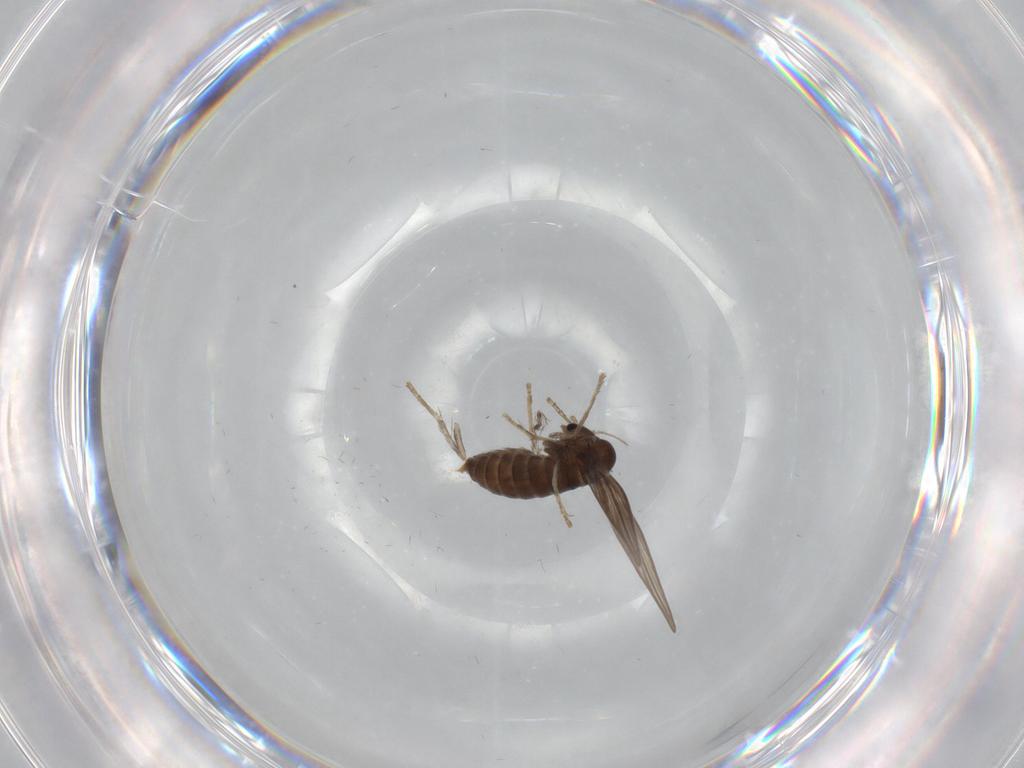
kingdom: Animalia
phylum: Arthropoda
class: Insecta
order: Diptera
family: Psychodidae
